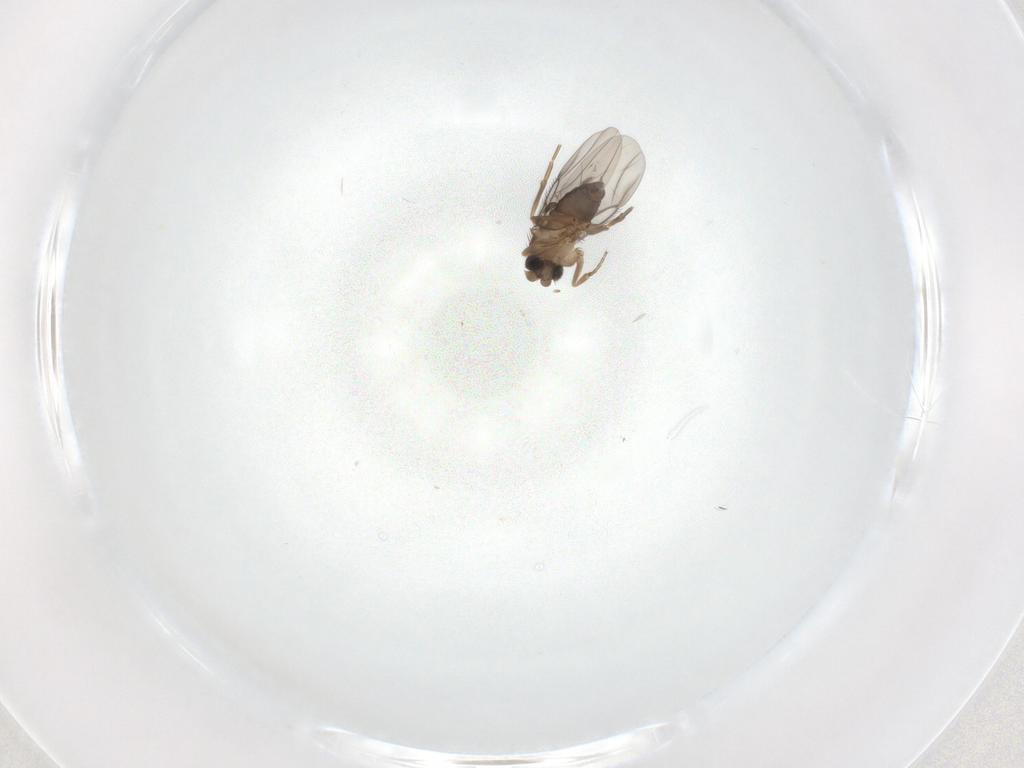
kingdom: Animalia
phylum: Arthropoda
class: Insecta
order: Diptera
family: Phoridae
